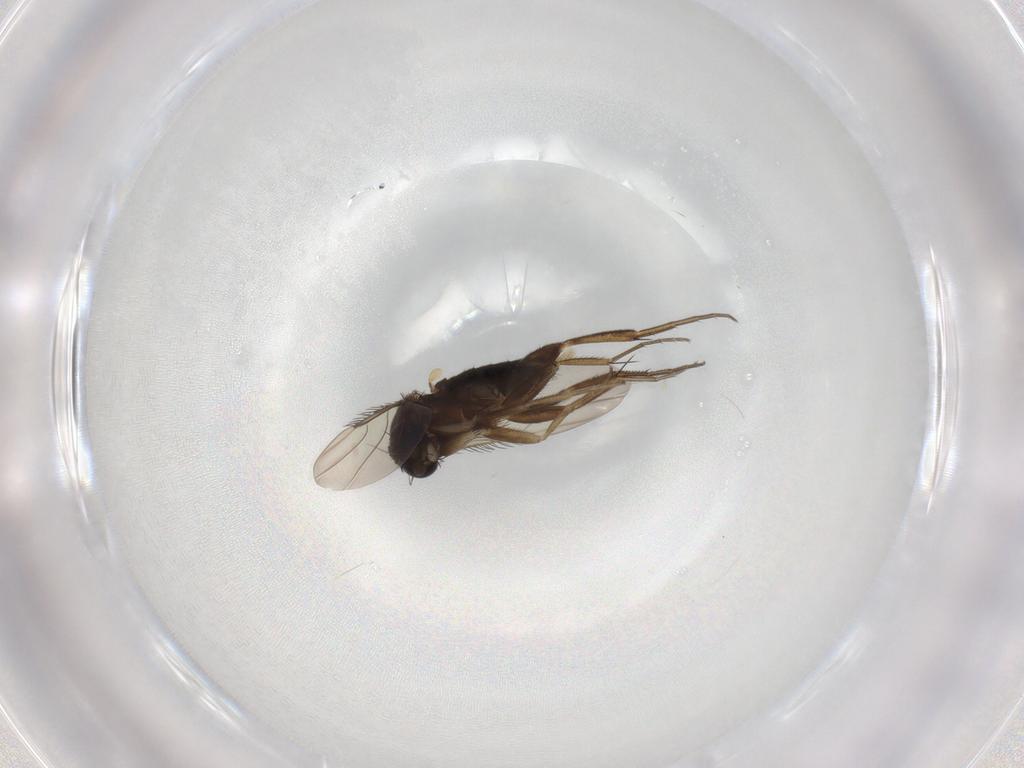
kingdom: Animalia
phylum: Arthropoda
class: Insecta
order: Diptera
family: Phoridae
